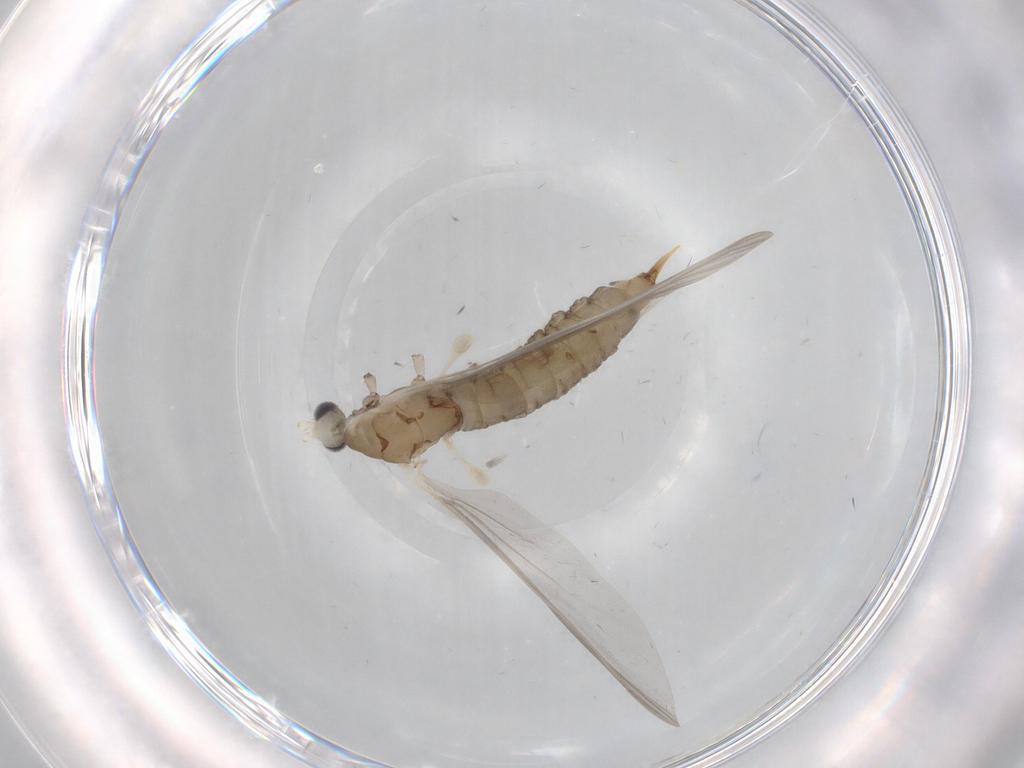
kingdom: Animalia
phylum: Arthropoda
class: Insecta
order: Diptera
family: Limoniidae
